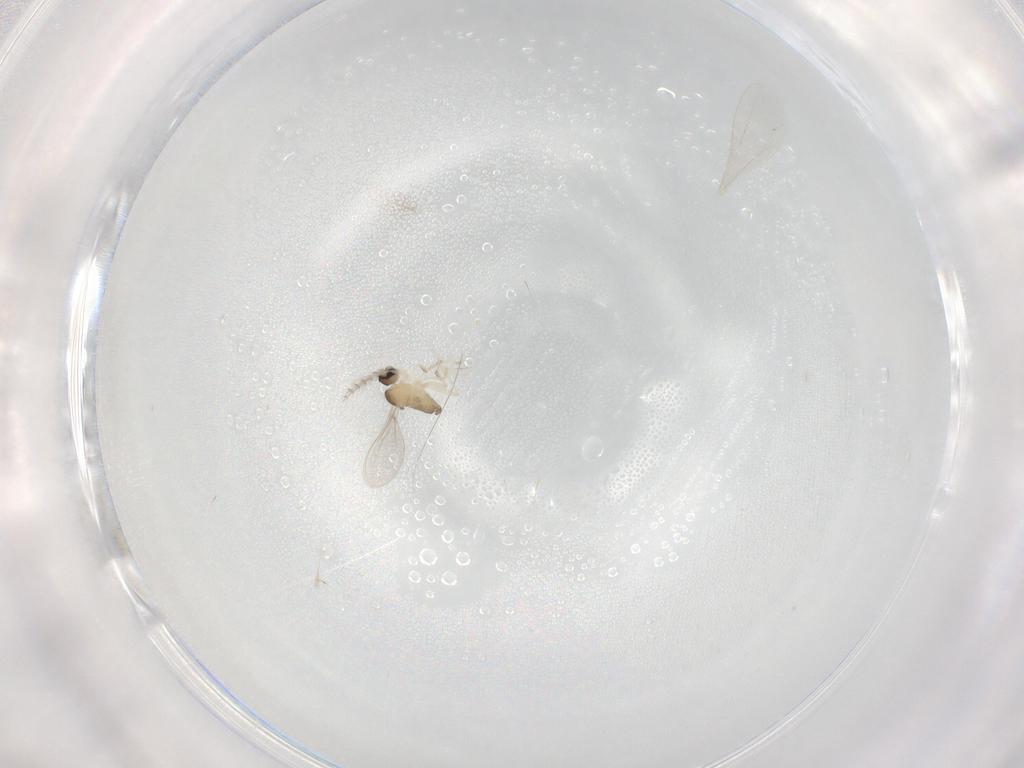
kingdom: Animalia
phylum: Arthropoda
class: Insecta
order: Diptera
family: Cecidomyiidae
